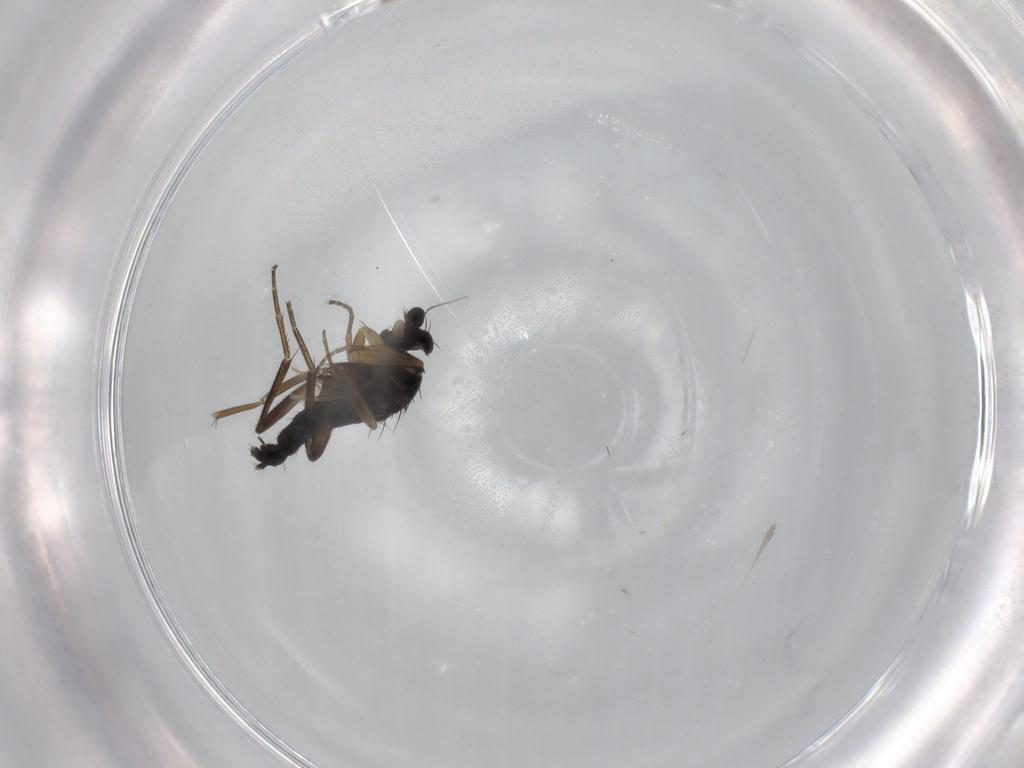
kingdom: Animalia
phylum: Arthropoda
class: Insecta
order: Diptera
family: Phoridae
